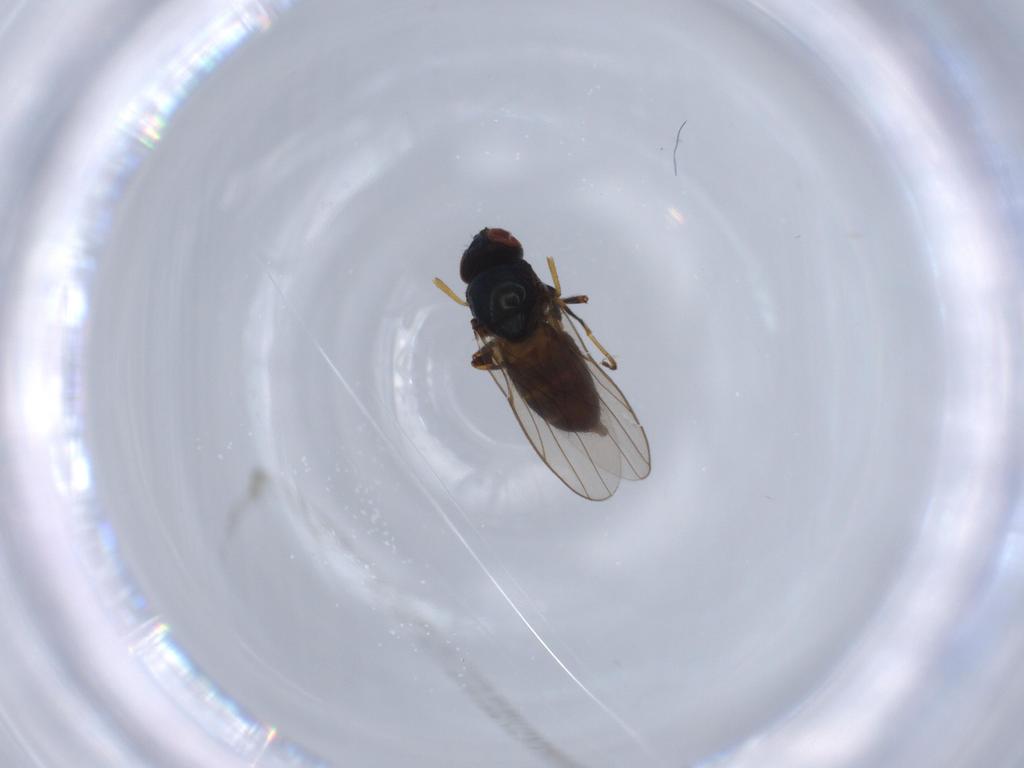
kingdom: Animalia
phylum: Arthropoda
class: Insecta
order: Diptera
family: Chloropidae
